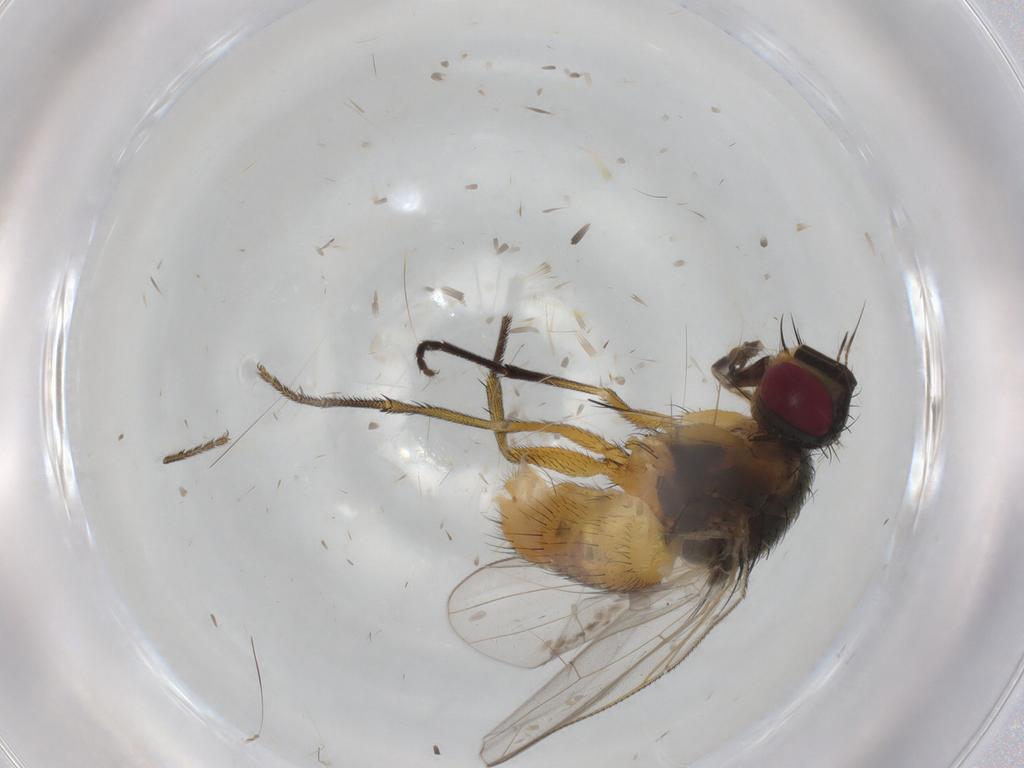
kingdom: Animalia
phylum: Arthropoda
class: Insecta
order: Diptera
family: Muscidae
